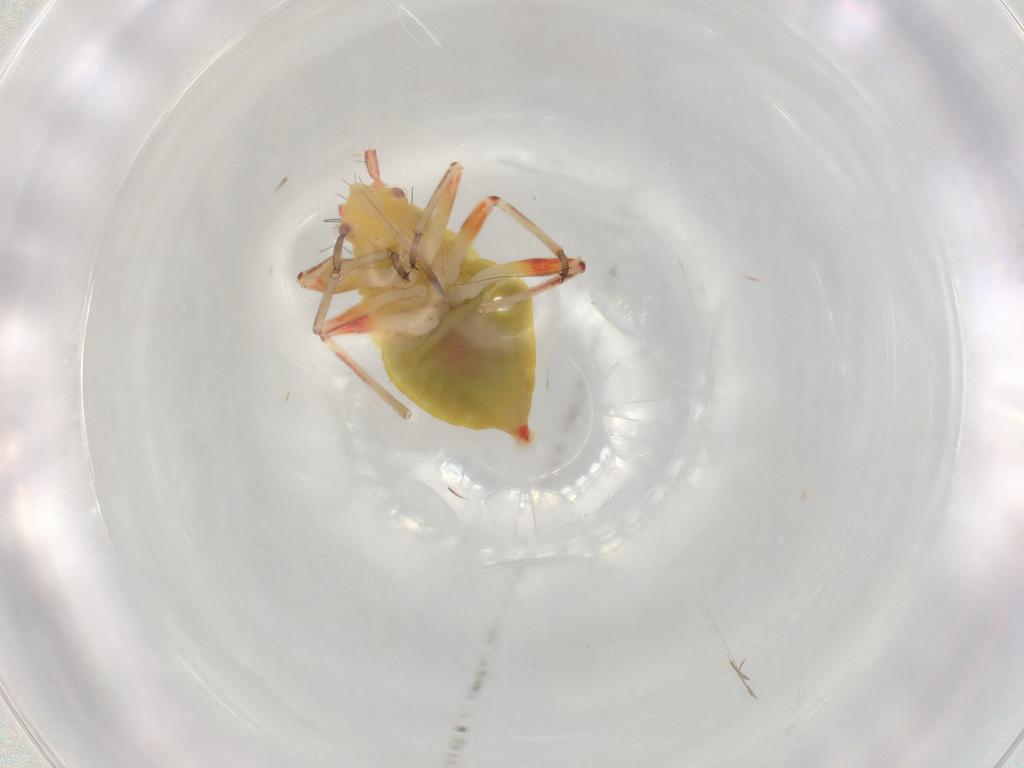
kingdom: Animalia
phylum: Arthropoda
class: Insecta
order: Hemiptera
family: Miridae
